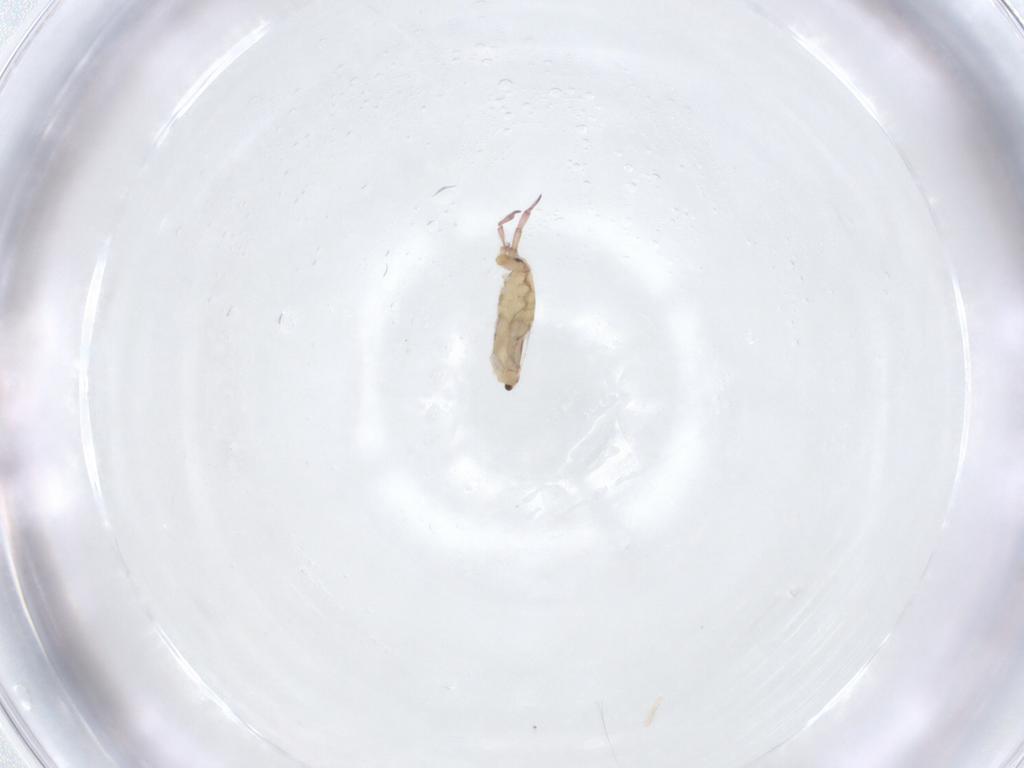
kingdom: Animalia
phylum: Arthropoda
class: Collembola
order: Entomobryomorpha
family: Entomobryidae
